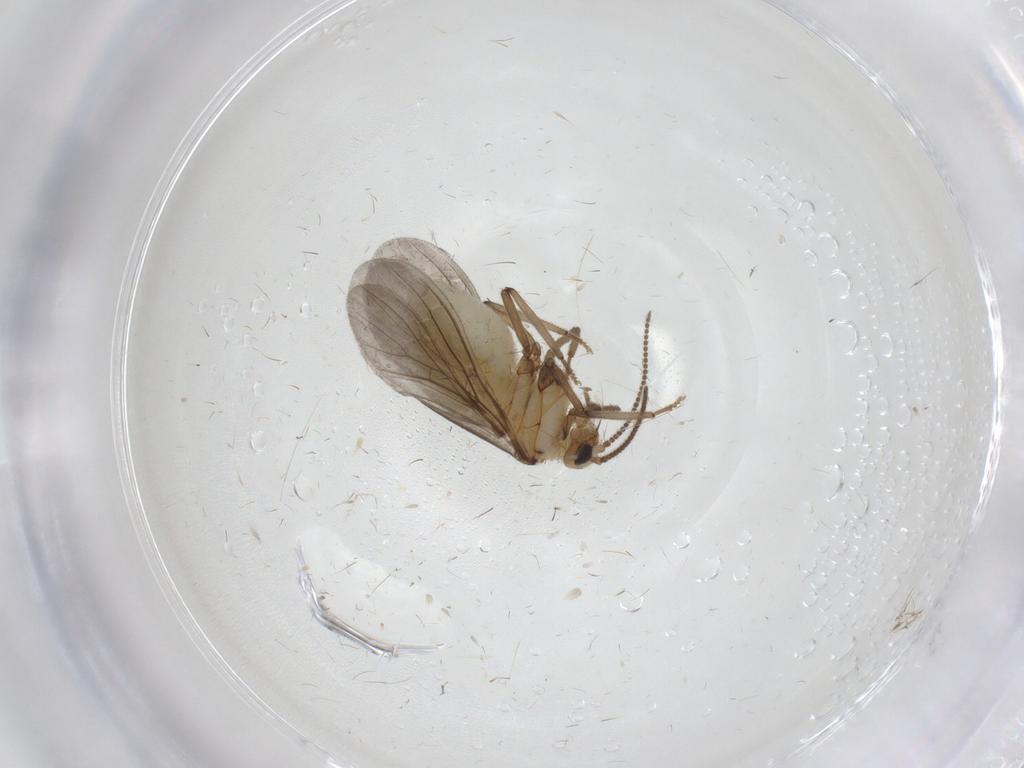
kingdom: Animalia
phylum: Arthropoda
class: Insecta
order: Neuroptera
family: Coniopterygidae
